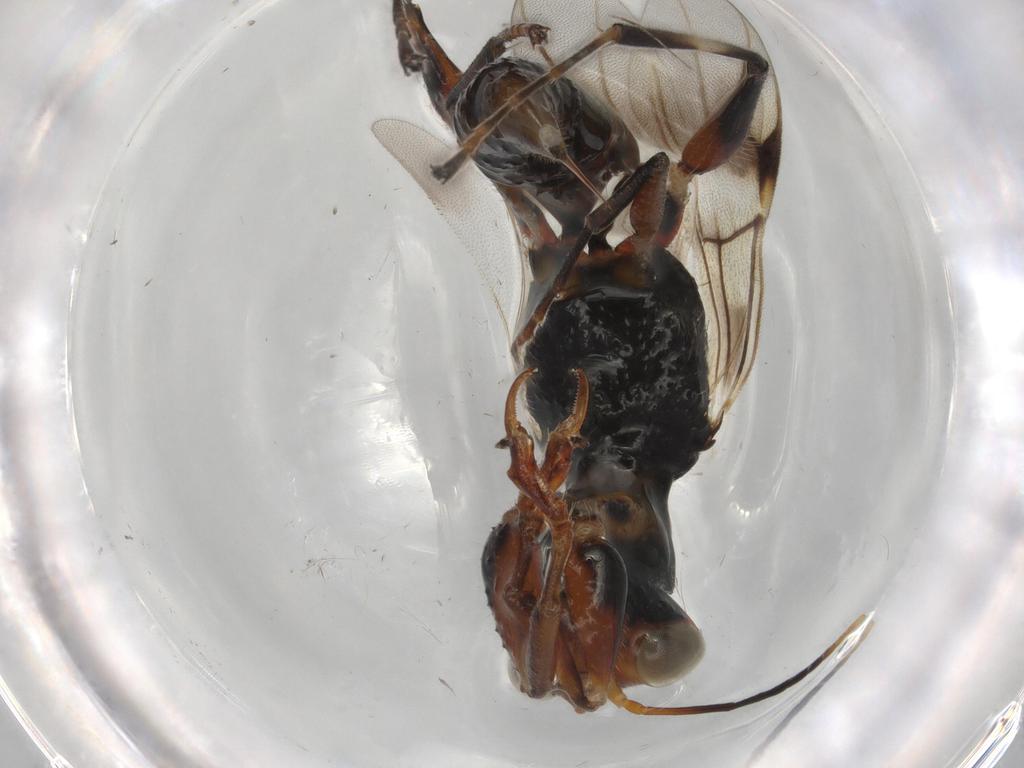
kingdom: Animalia
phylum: Arthropoda
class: Insecta
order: Hymenoptera
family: Dryinidae
